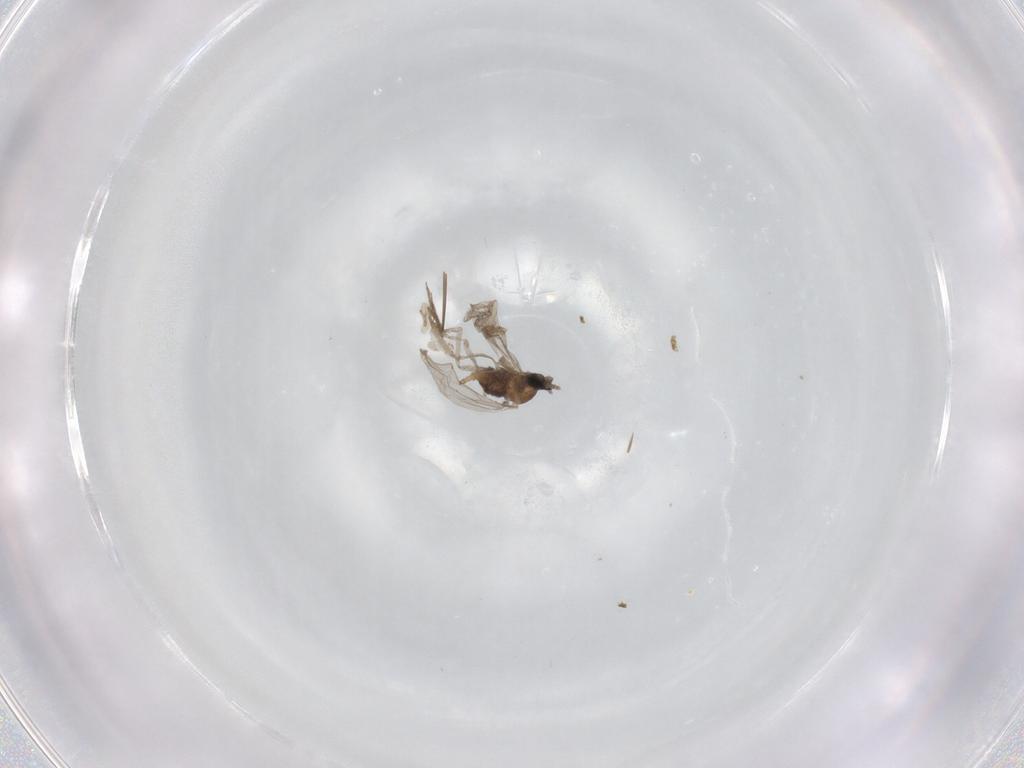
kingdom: Animalia
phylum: Arthropoda
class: Insecta
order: Diptera
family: Cecidomyiidae
